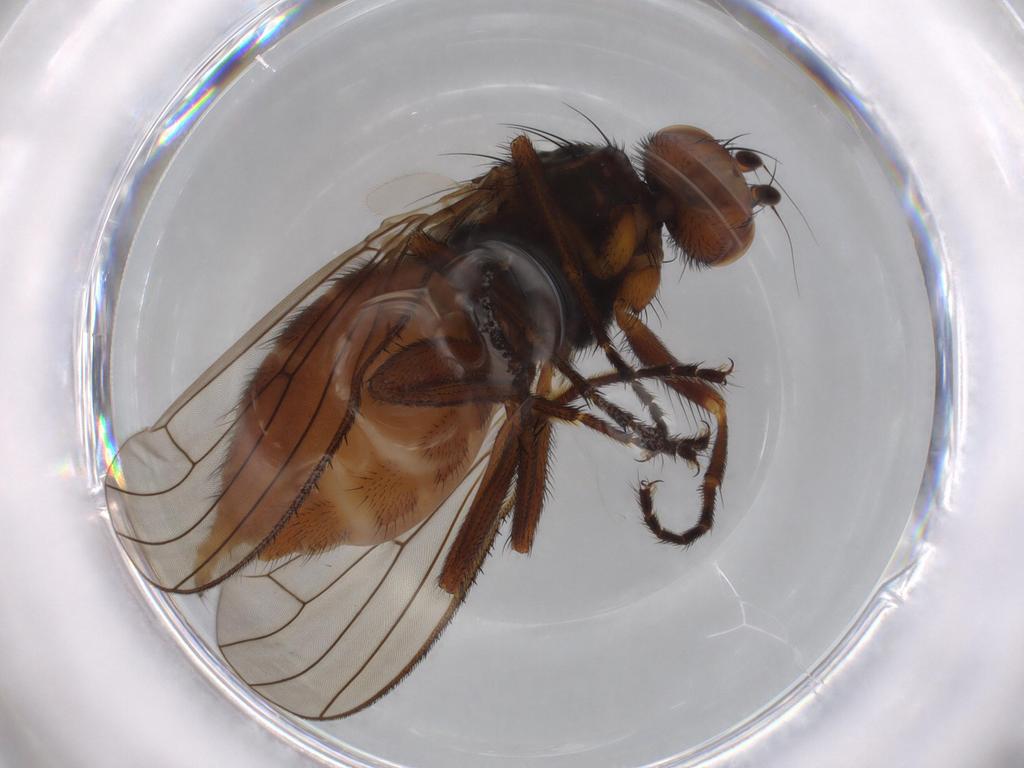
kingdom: Animalia
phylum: Arthropoda
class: Insecta
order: Diptera
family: Heleomyzidae
